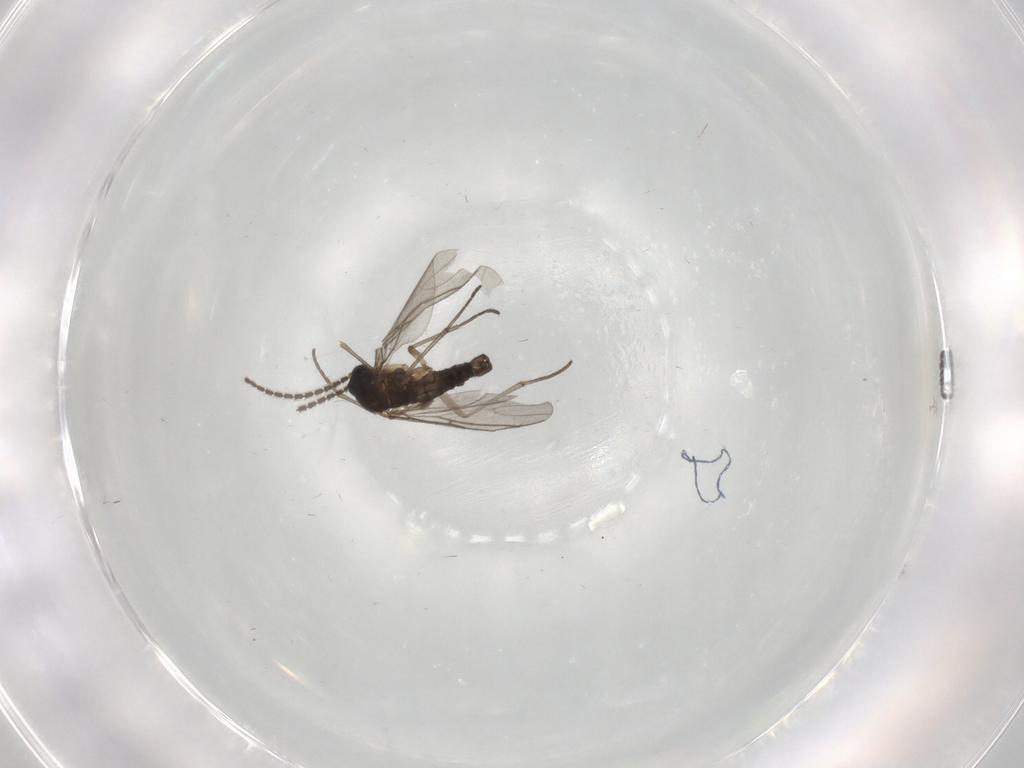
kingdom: Animalia
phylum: Arthropoda
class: Insecta
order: Diptera
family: Sciaridae
